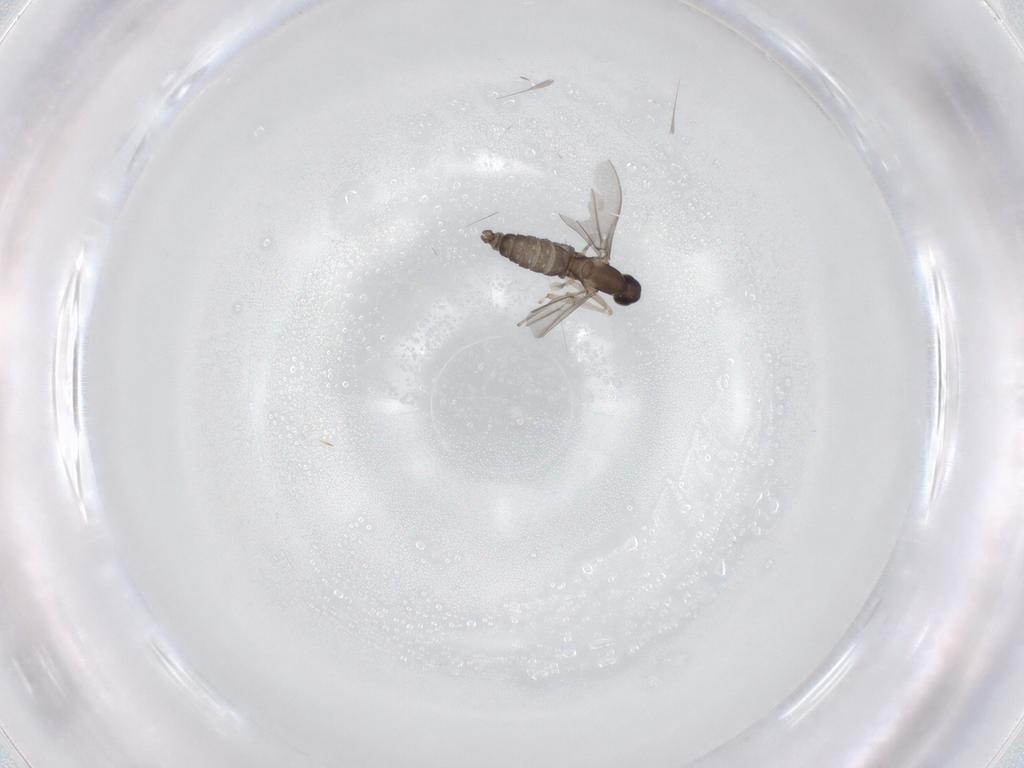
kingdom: Animalia
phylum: Arthropoda
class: Insecta
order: Diptera
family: Cecidomyiidae
